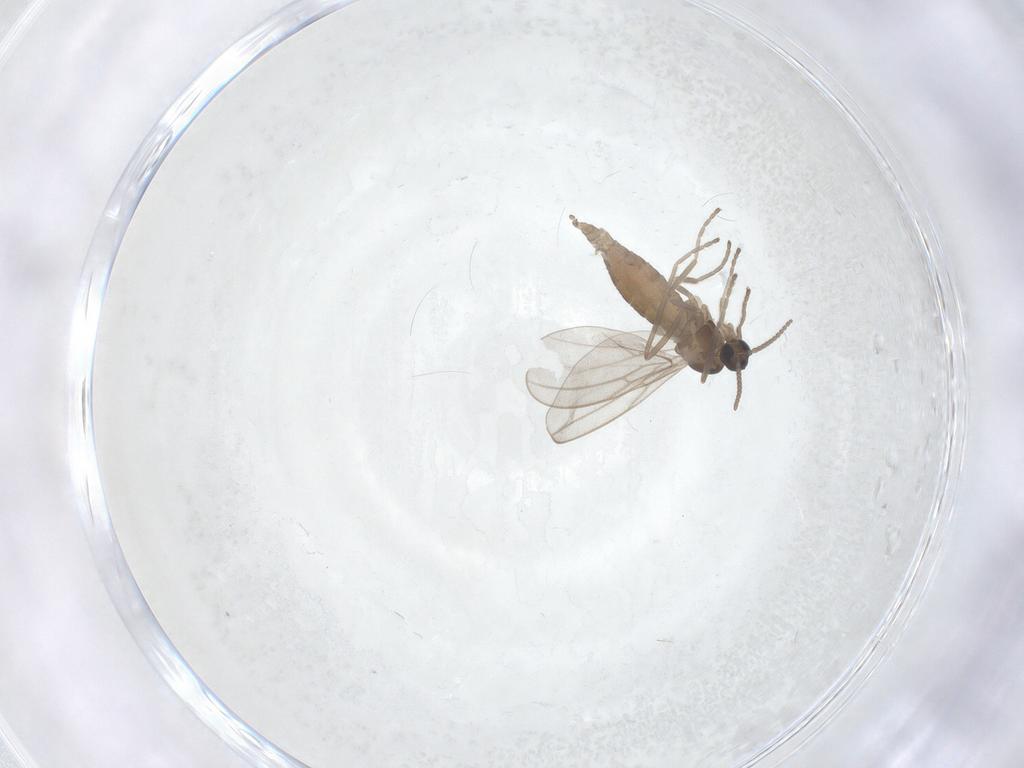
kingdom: Animalia
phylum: Arthropoda
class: Insecta
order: Diptera
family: Cecidomyiidae
